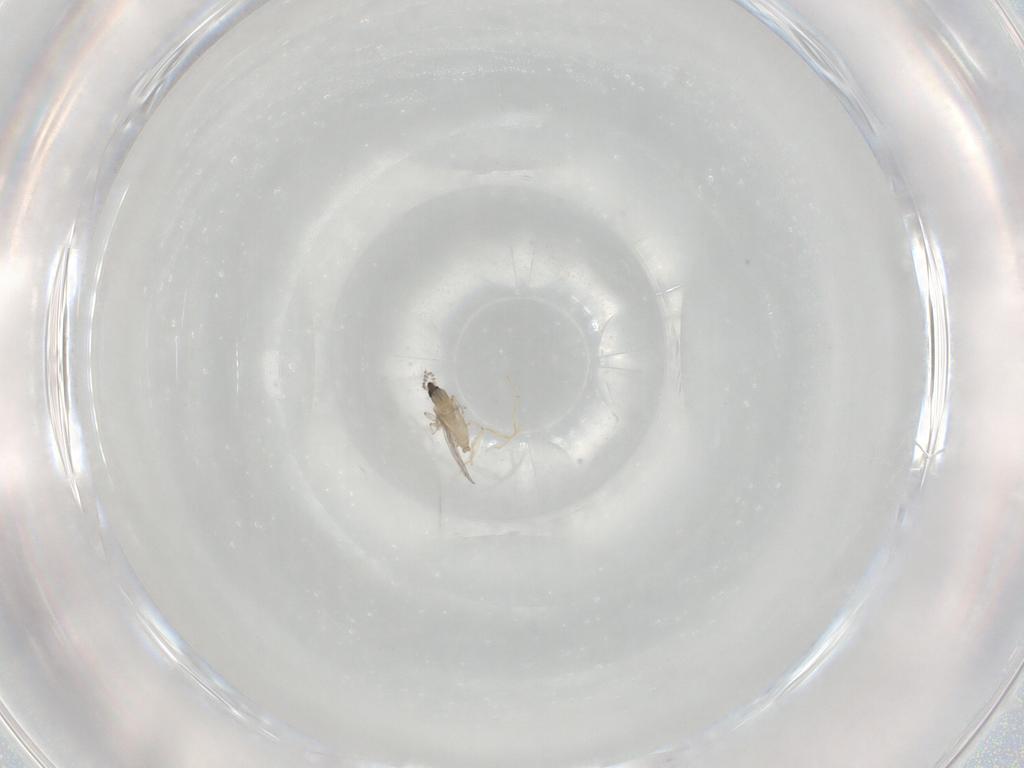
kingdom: Animalia
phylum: Arthropoda
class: Insecta
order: Diptera
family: Cecidomyiidae
